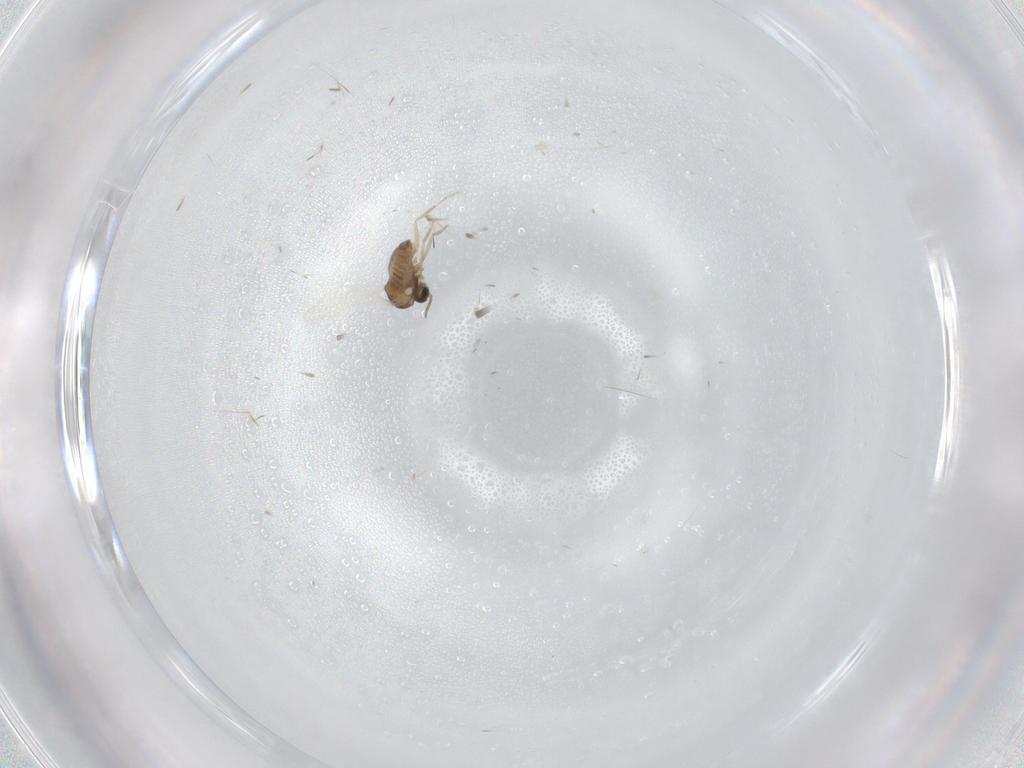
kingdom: Animalia
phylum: Arthropoda
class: Insecta
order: Diptera
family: Cecidomyiidae
